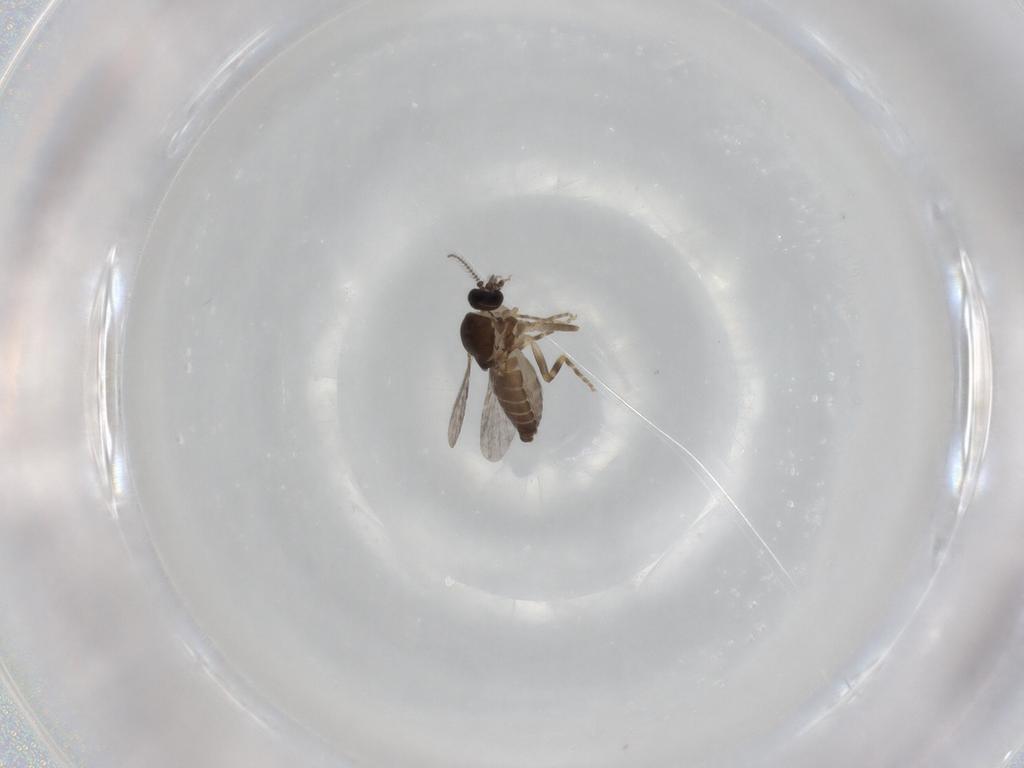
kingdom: Animalia
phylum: Arthropoda
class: Insecta
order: Diptera
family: Ceratopogonidae
